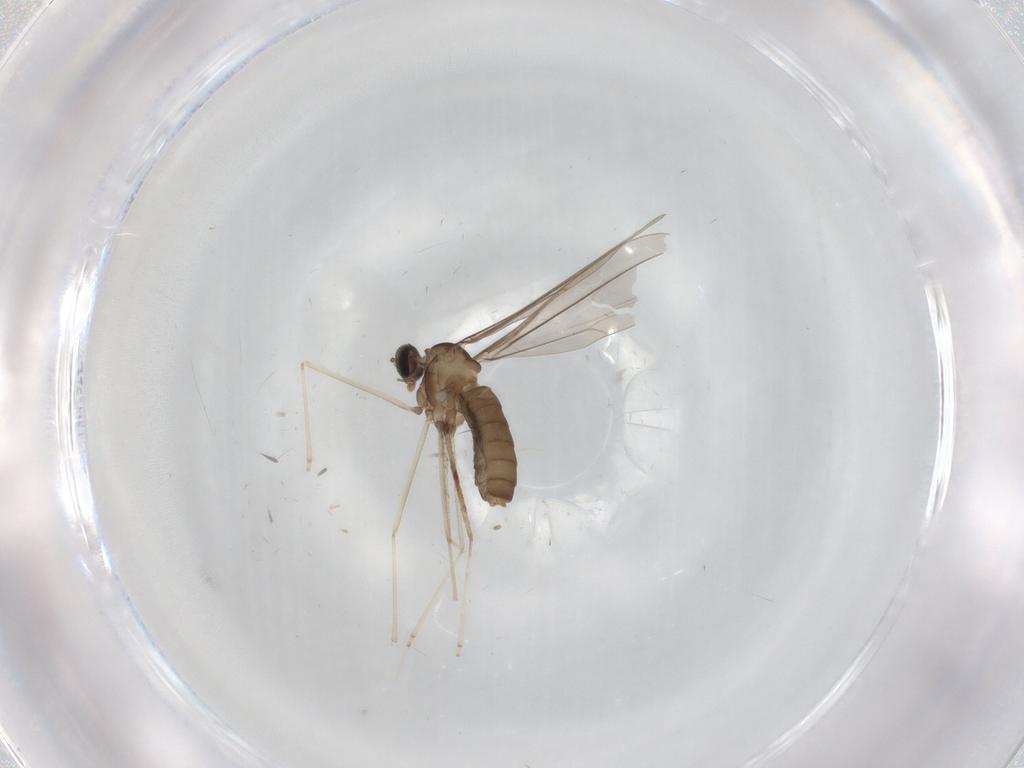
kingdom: Animalia
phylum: Arthropoda
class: Insecta
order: Diptera
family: Cecidomyiidae
